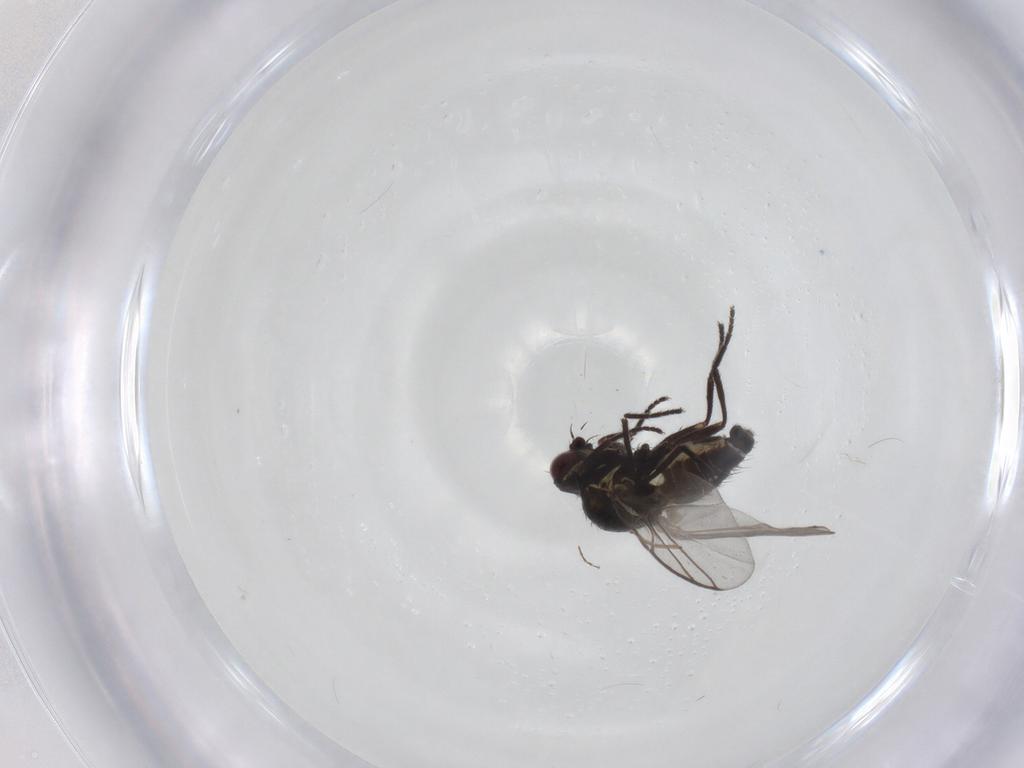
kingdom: Animalia
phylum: Arthropoda
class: Insecta
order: Diptera
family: Agromyzidae
